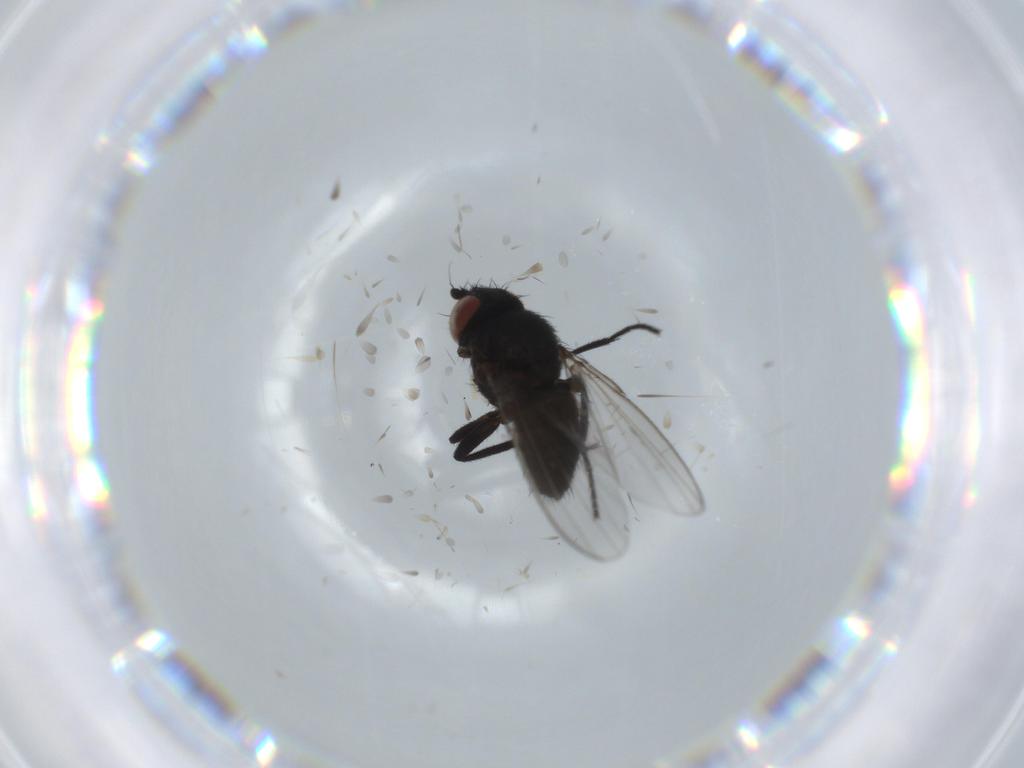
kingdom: Animalia
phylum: Arthropoda
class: Insecta
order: Diptera
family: Milichiidae
